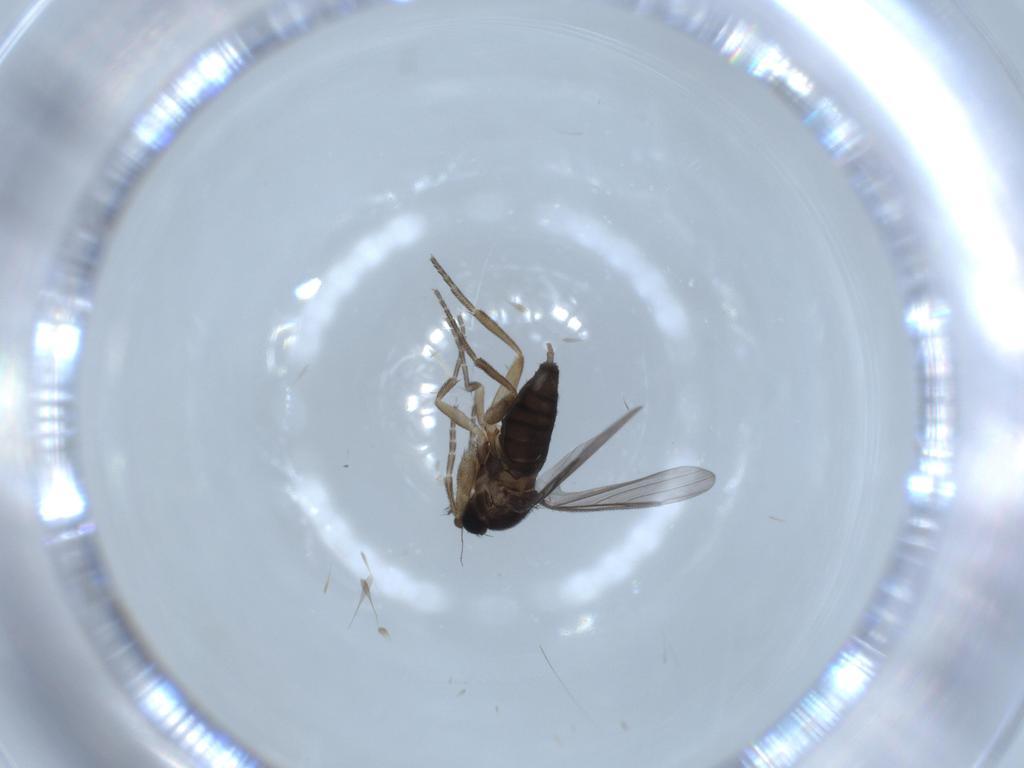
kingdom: Animalia
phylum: Arthropoda
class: Insecta
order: Diptera
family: Phoridae
